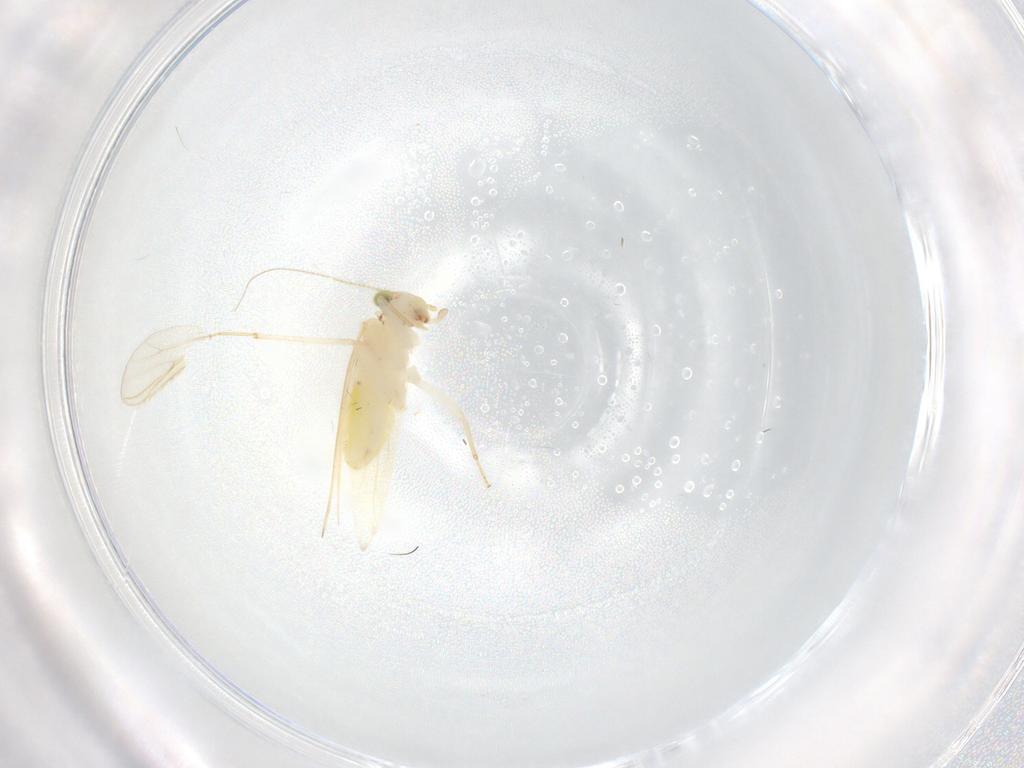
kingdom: Animalia
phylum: Arthropoda
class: Insecta
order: Psocodea
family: Lepidopsocidae
